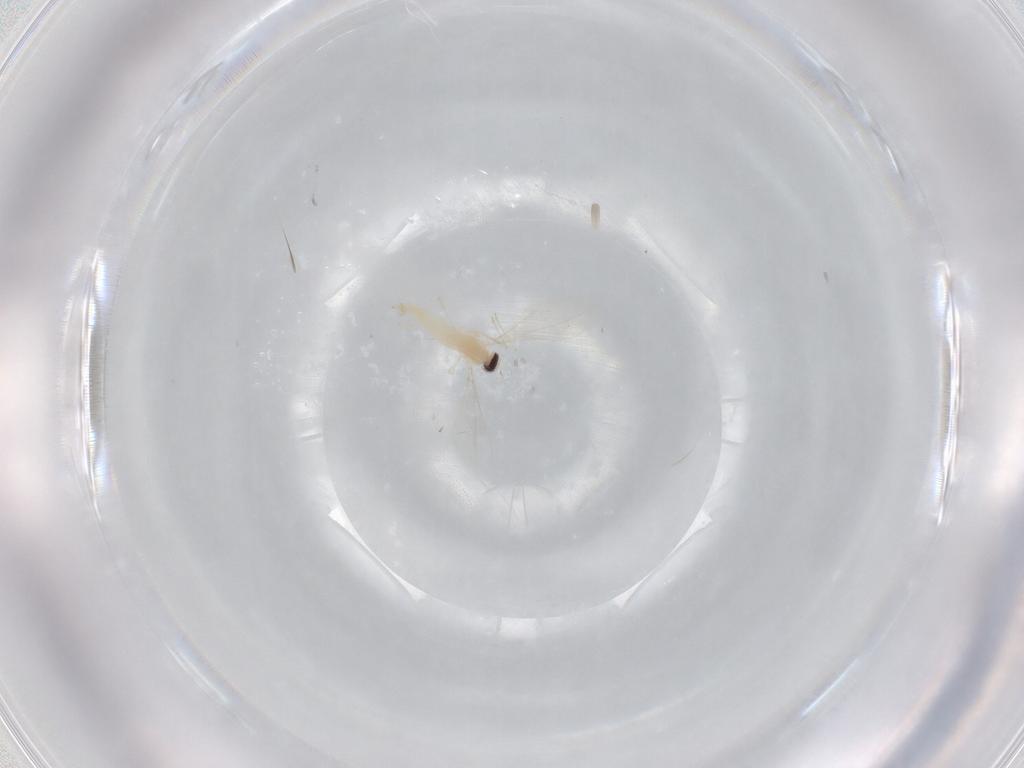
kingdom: Animalia
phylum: Arthropoda
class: Insecta
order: Diptera
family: Cecidomyiidae
